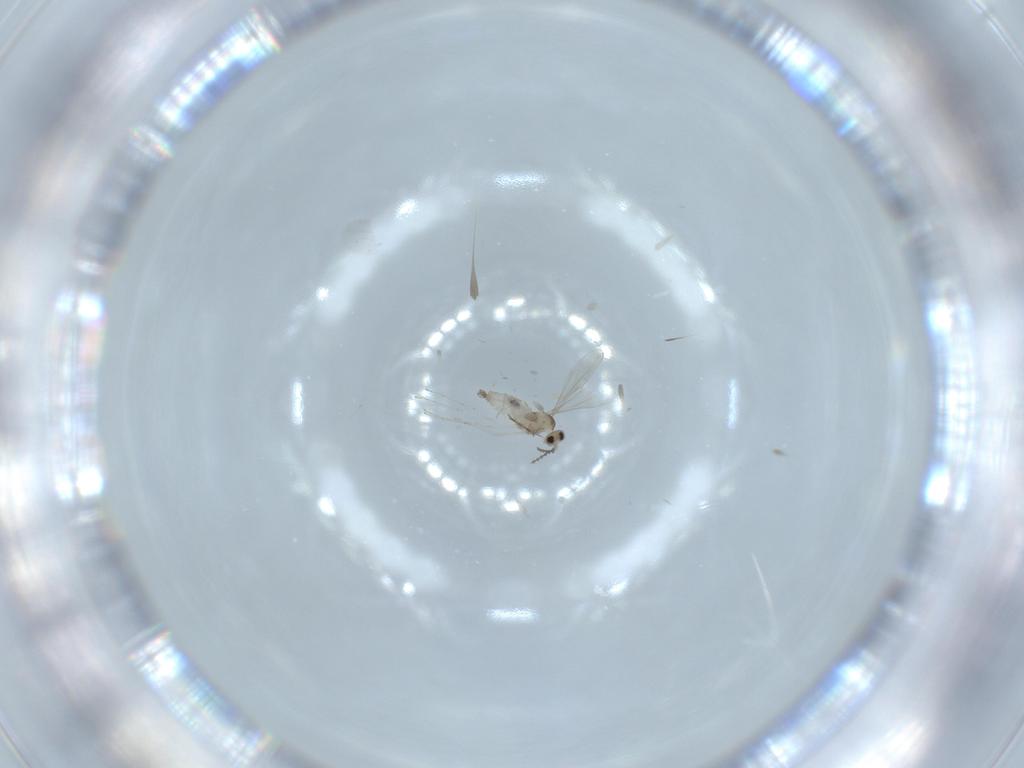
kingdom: Animalia
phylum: Arthropoda
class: Insecta
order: Diptera
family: Cecidomyiidae
